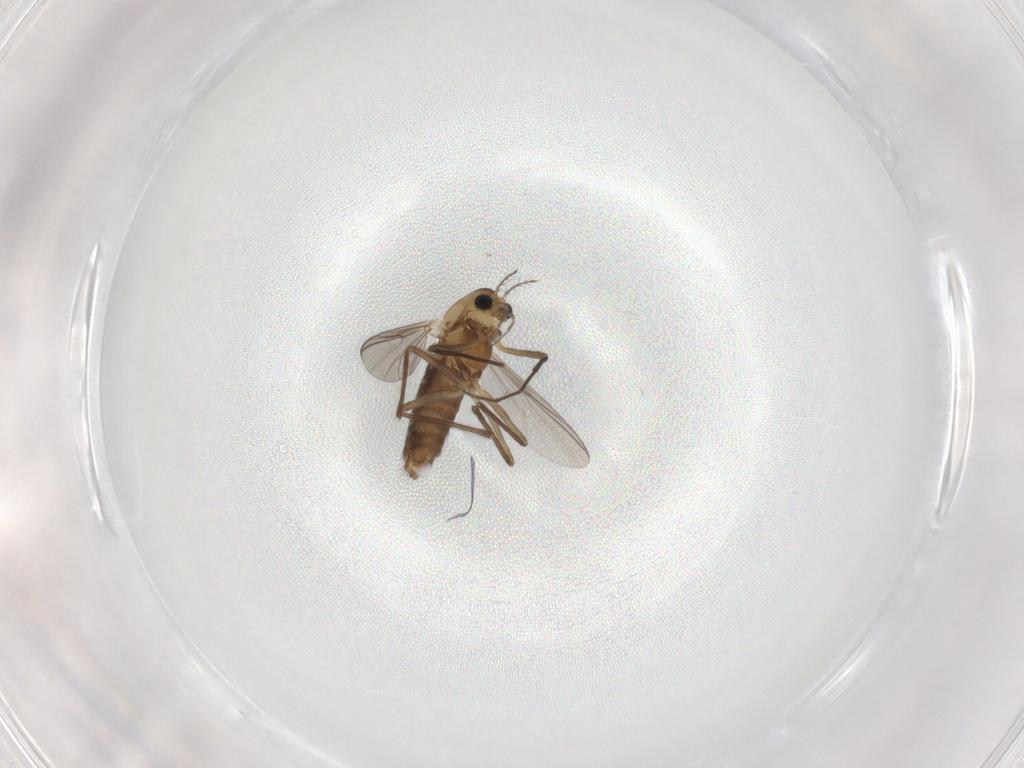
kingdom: Animalia
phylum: Arthropoda
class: Insecta
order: Diptera
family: Chironomidae
